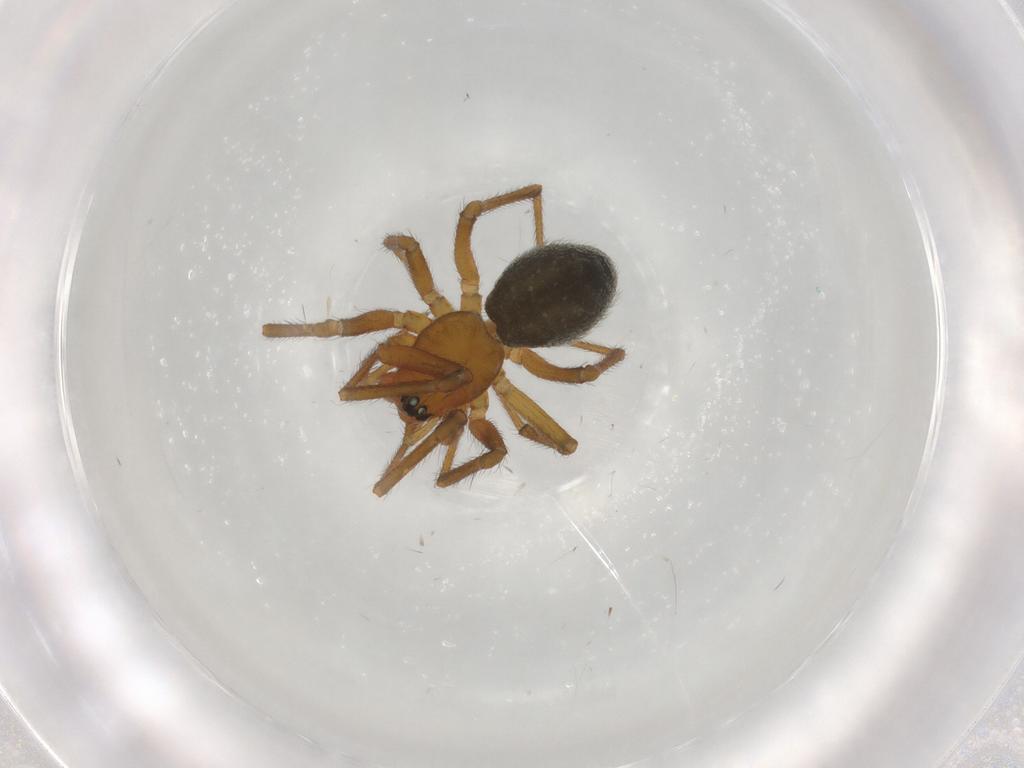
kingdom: Animalia
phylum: Arthropoda
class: Arachnida
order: Araneae
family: Linyphiidae
